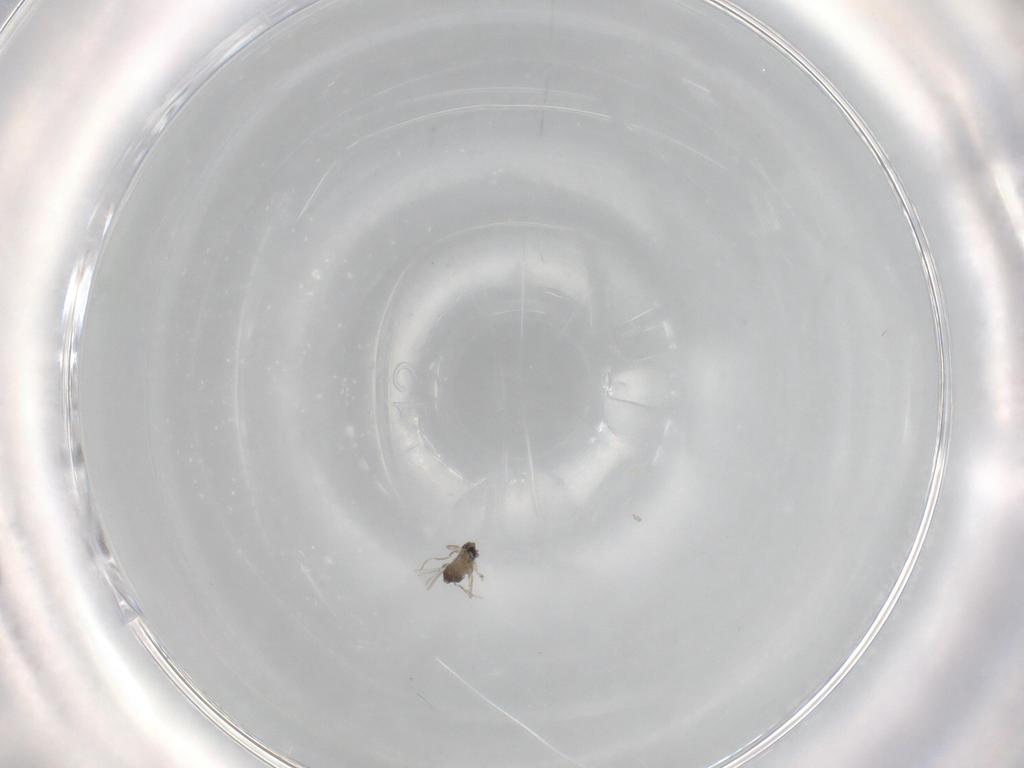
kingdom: Animalia
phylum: Arthropoda
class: Insecta
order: Diptera
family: Cecidomyiidae
